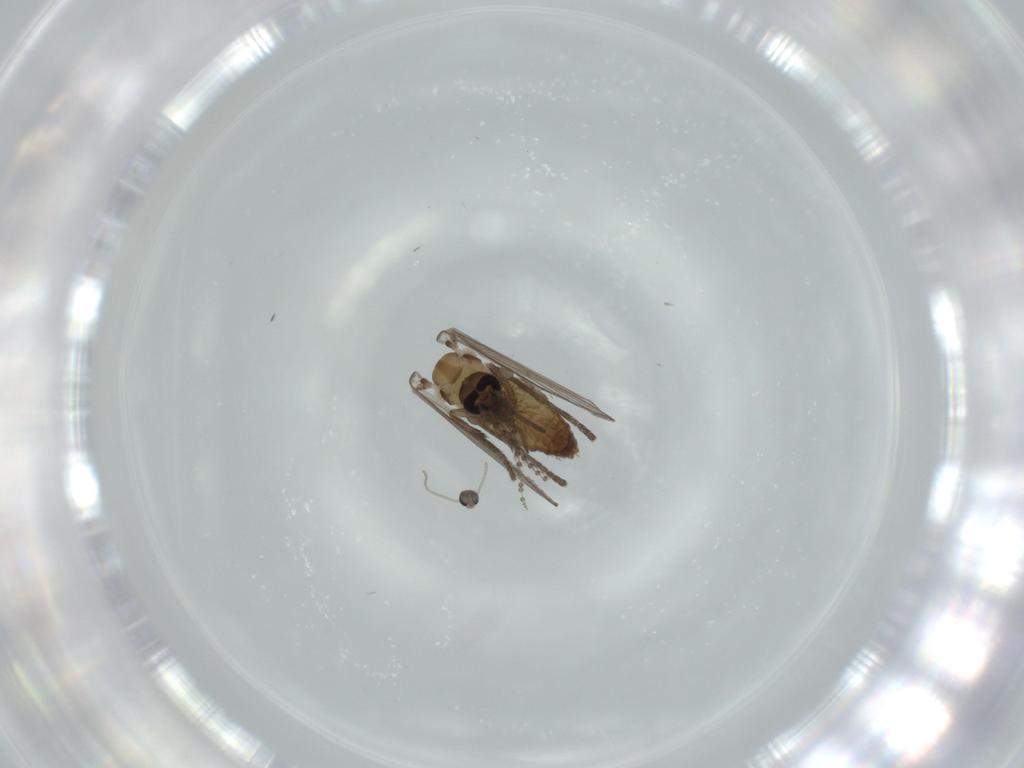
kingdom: Animalia
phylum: Arthropoda
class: Insecta
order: Diptera
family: Psychodidae
